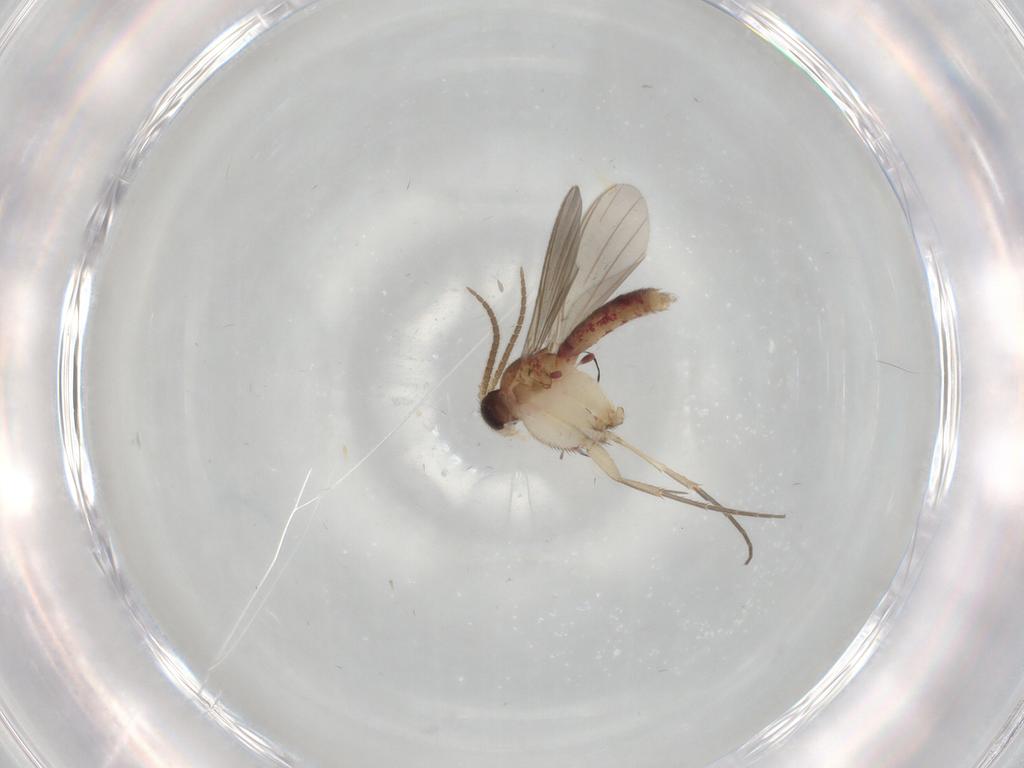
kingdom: Animalia
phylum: Arthropoda
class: Insecta
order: Diptera
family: Mycetophilidae
